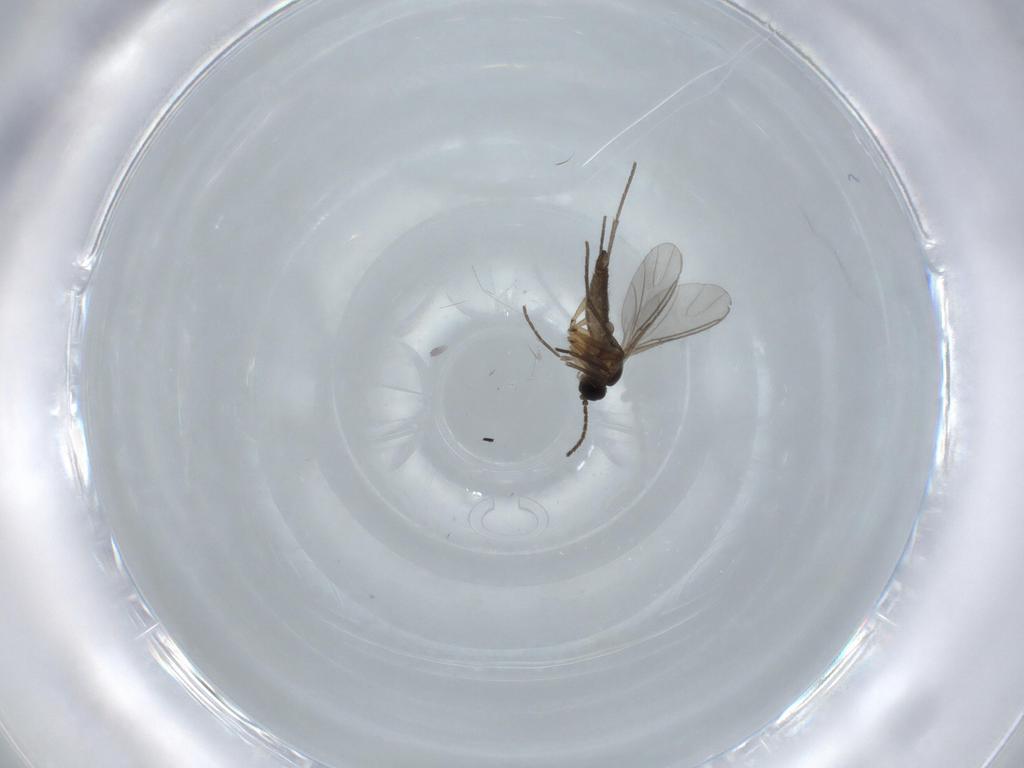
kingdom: Animalia
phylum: Arthropoda
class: Insecta
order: Diptera
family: Sciaridae
